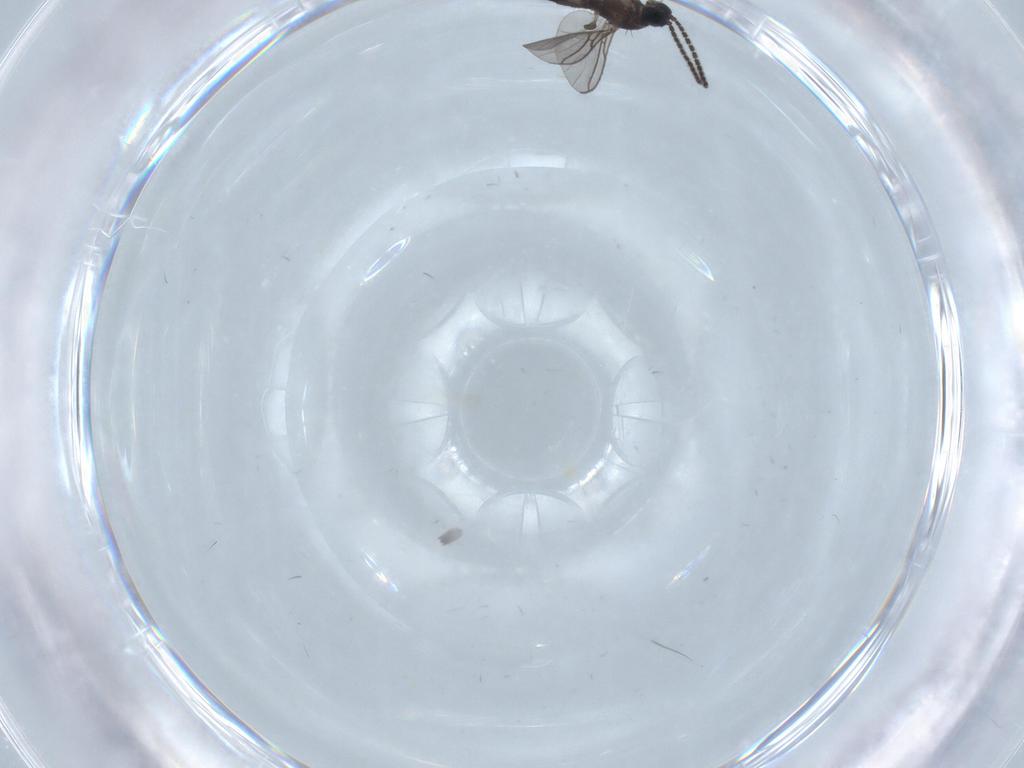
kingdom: Animalia
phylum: Arthropoda
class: Insecta
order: Diptera
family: Sciaridae
